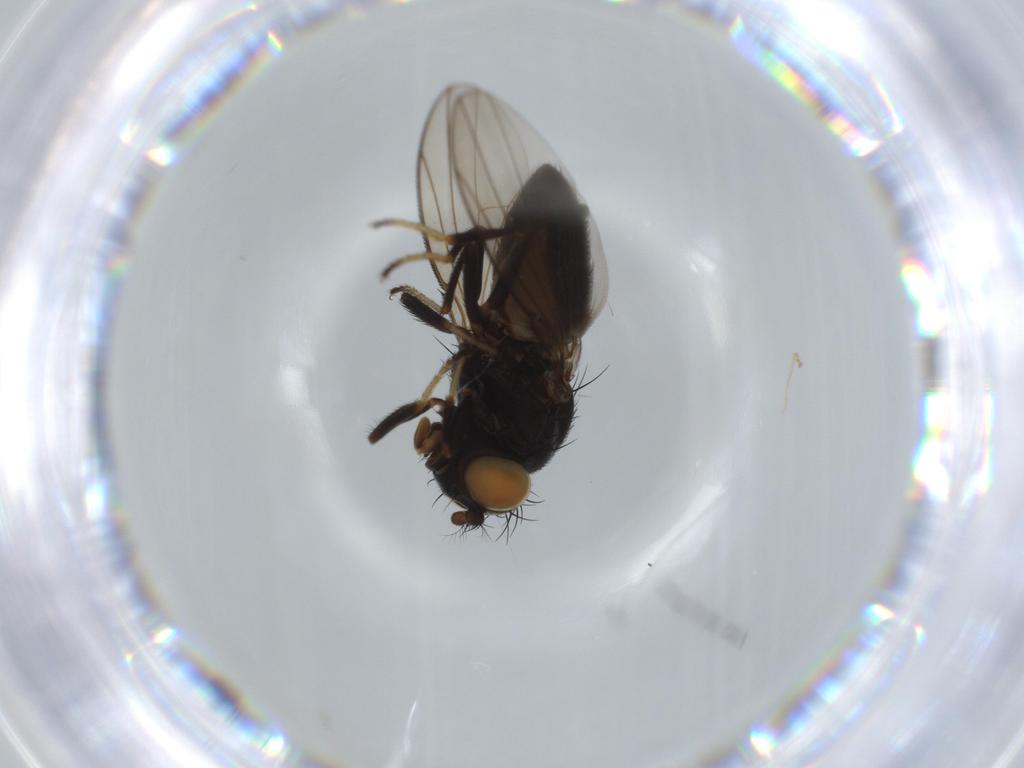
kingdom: Animalia
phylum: Arthropoda
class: Insecta
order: Diptera
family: Ephydridae
